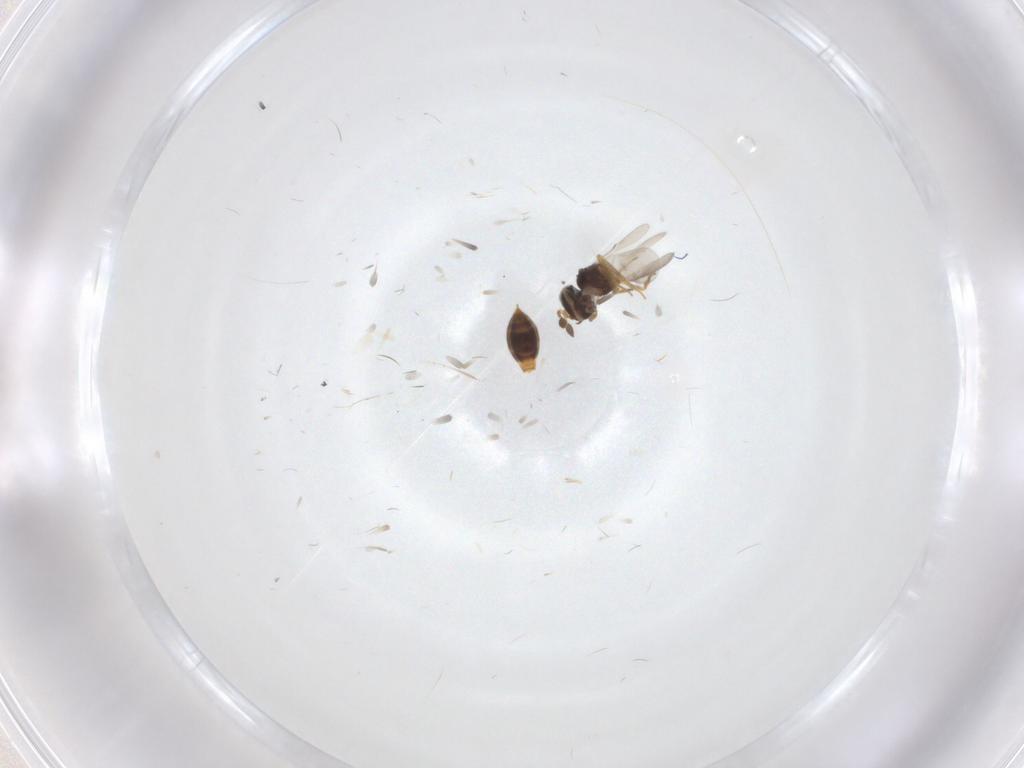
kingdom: Animalia
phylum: Arthropoda
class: Insecta
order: Hymenoptera
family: Scelionidae
